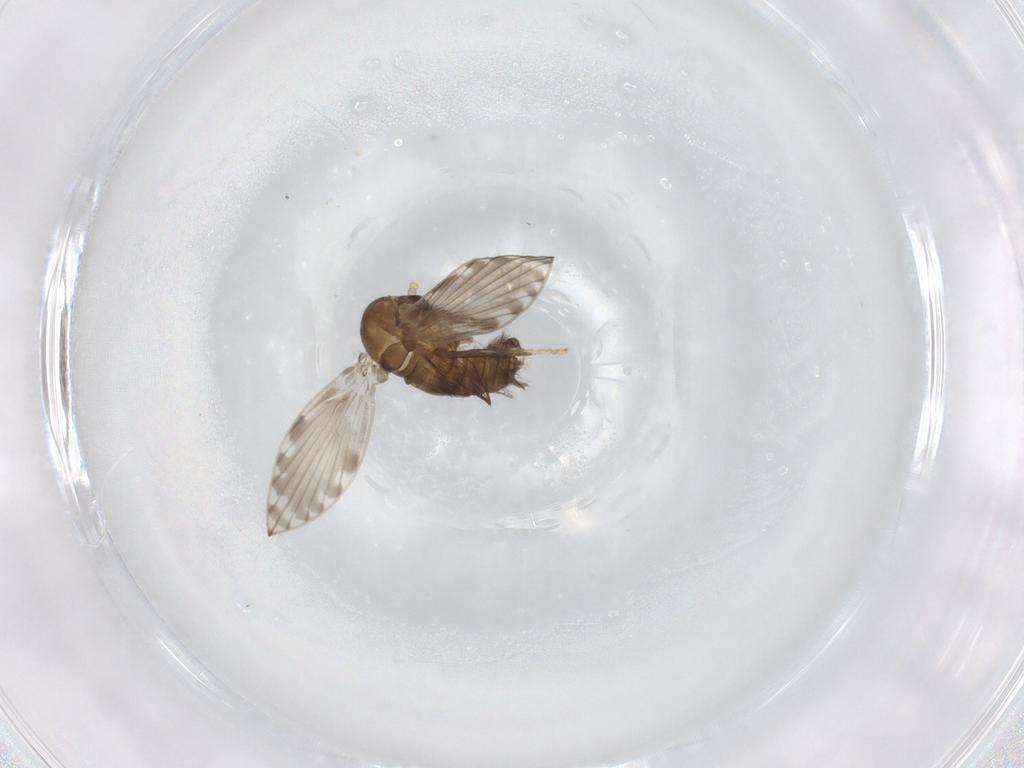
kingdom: Animalia
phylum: Arthropoda
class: Insecta
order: Diptera
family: Psychodidae
